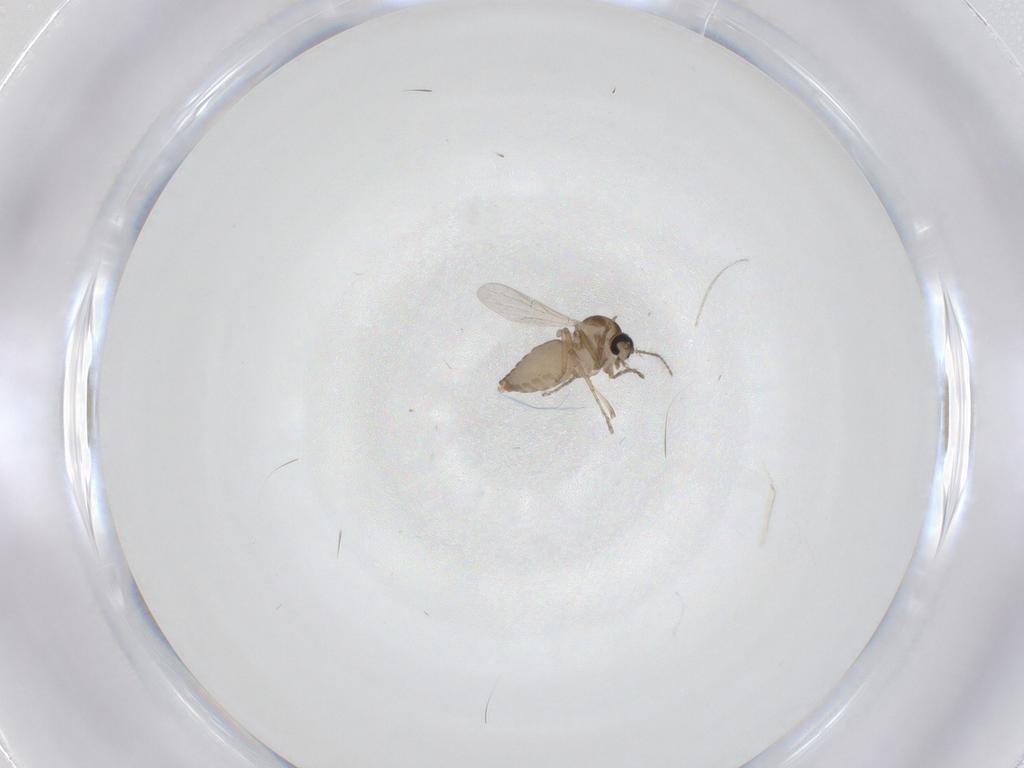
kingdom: Animalia
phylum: Arthropoda
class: Insecta
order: Diptera
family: Ceratopogonidae
